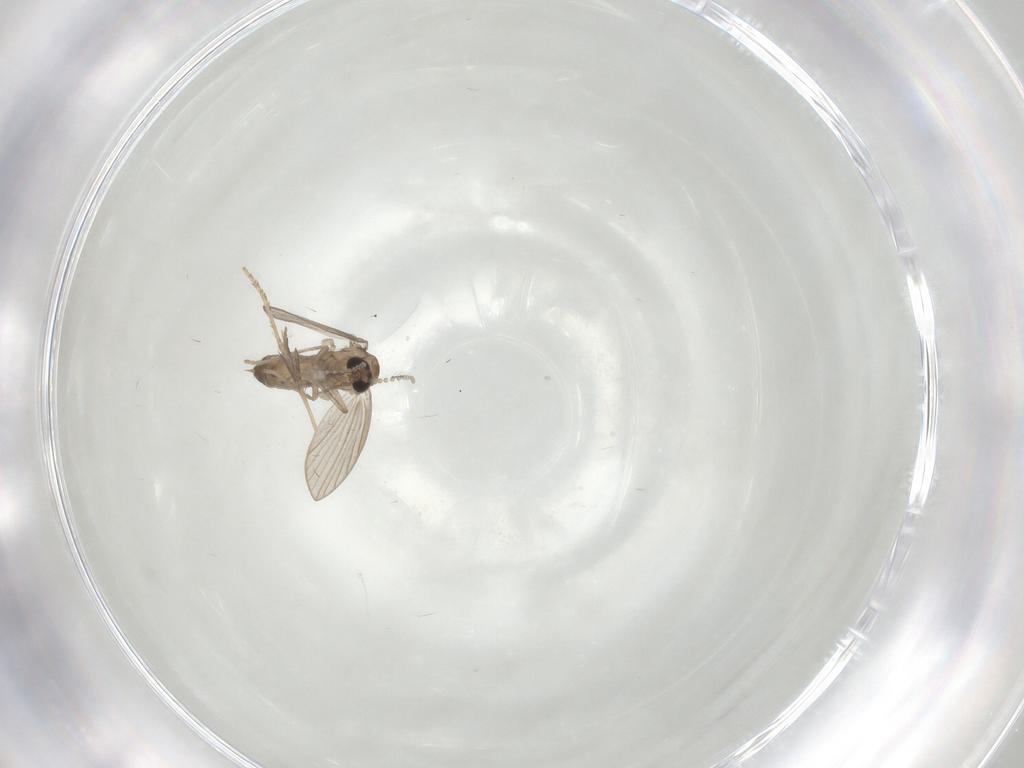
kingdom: Animalia
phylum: Arthropoda
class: Insecta
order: Diptera
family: Psychodidae
